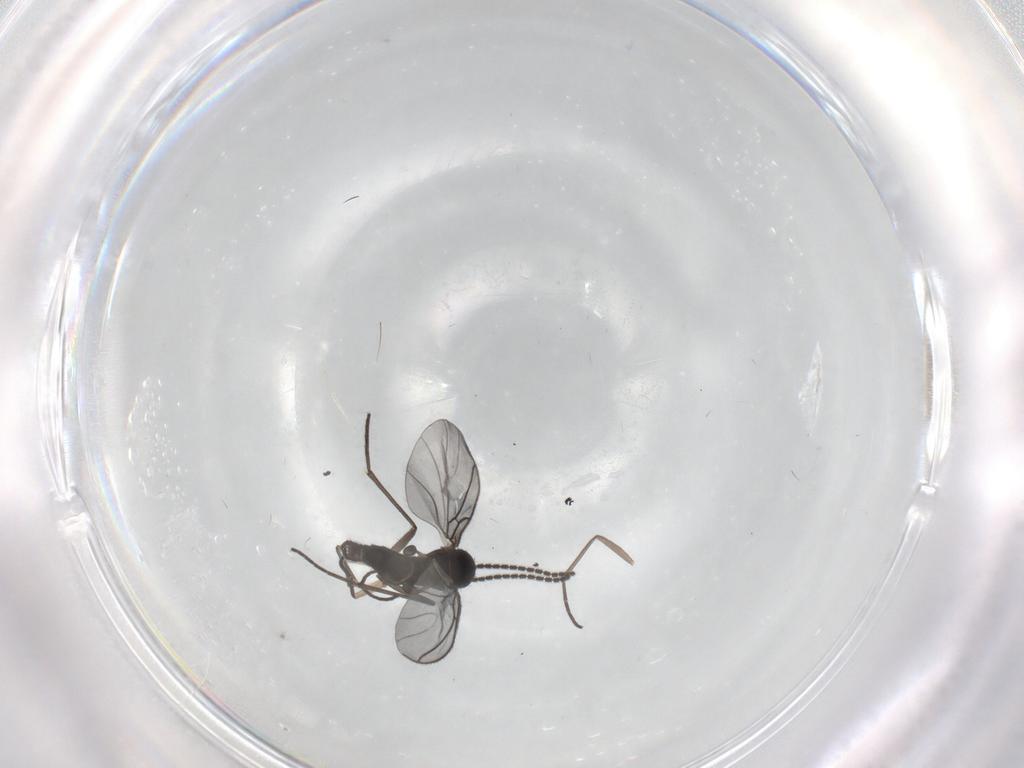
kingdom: Animalia
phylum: Arthropoda
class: Insecta
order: Diptera
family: Sciaridae
